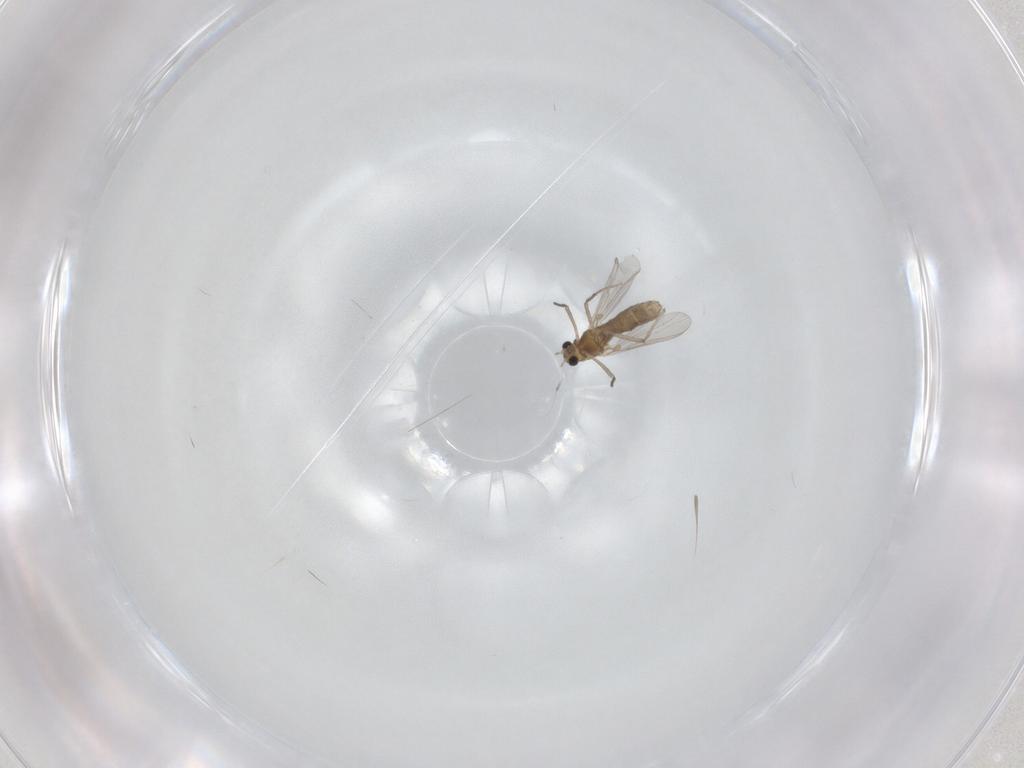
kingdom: Animalia
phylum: Arthropoda
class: Insecta
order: Diptera
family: Chironomidae
